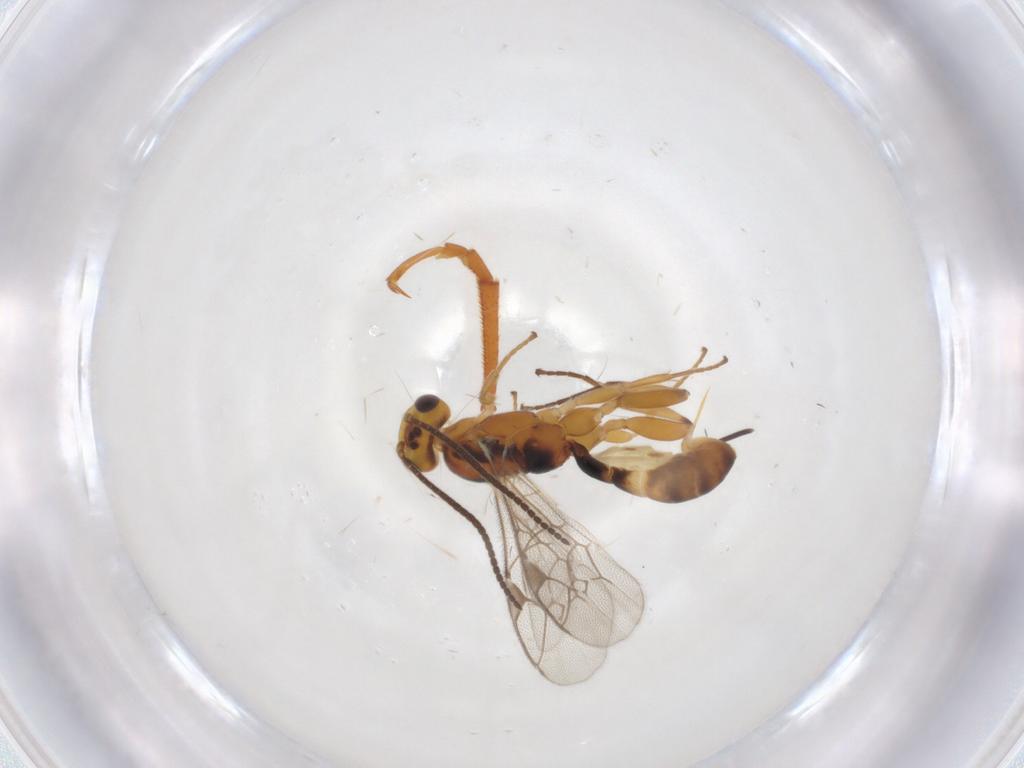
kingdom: Animalia
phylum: Arthropoda
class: Insecta
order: Hymenoptera
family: Ichneumonidae
